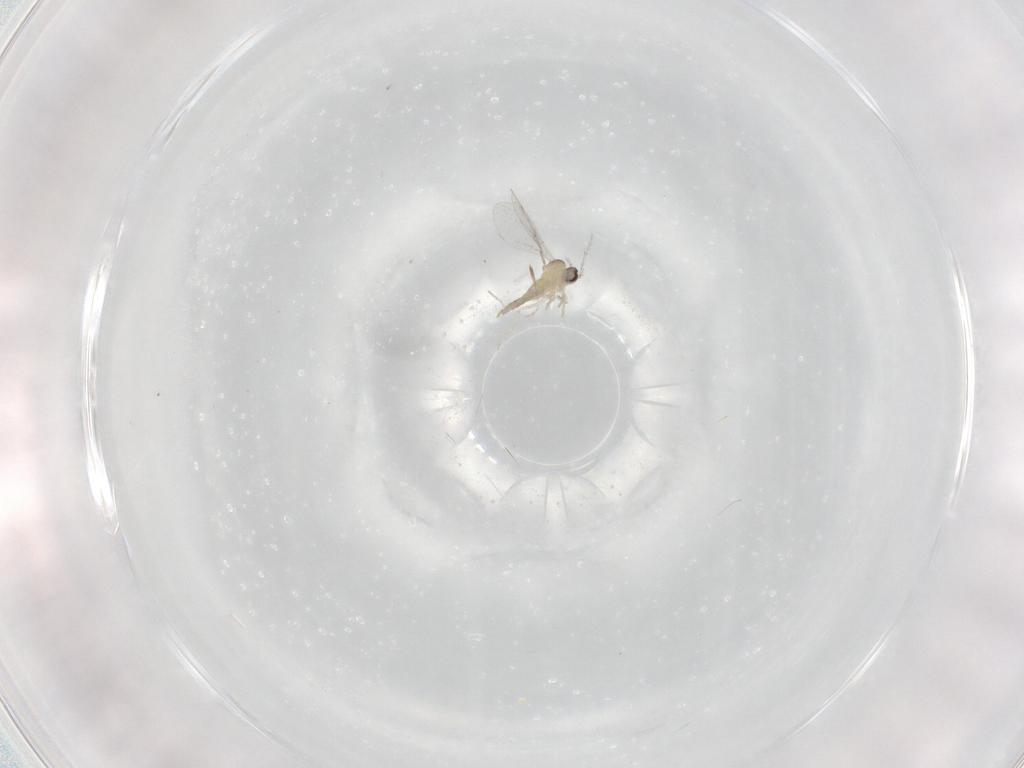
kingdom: Animalia
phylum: Arthropoda
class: Insecta
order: Diptera
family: Cecidomyiidae
